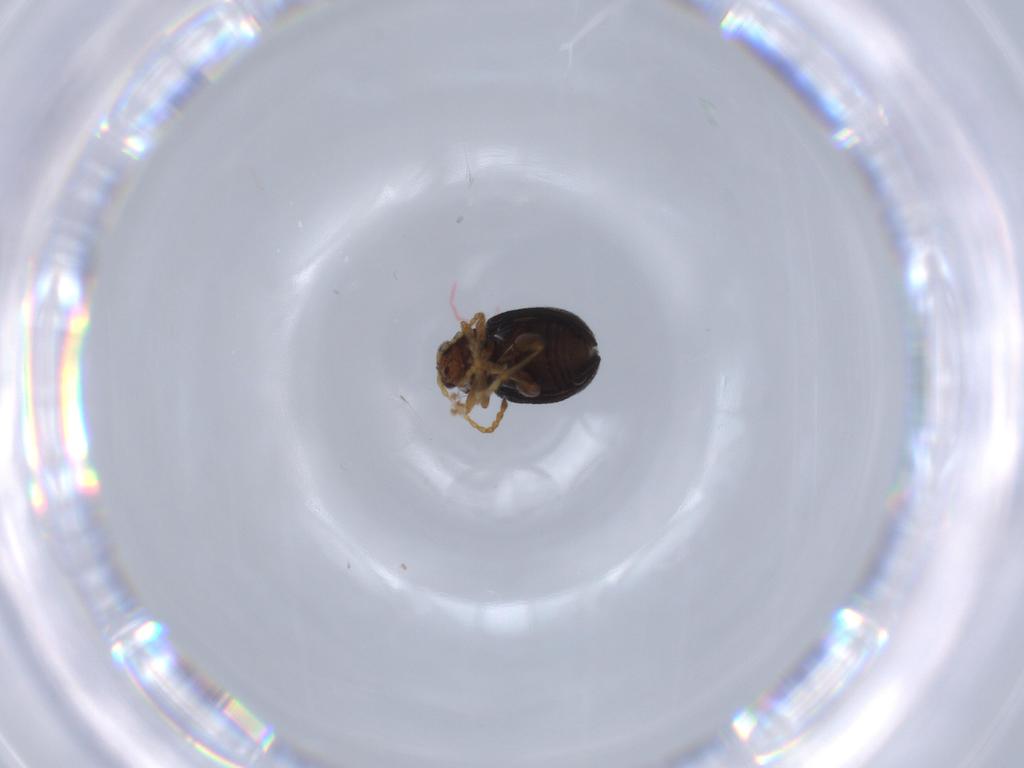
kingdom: Animalia
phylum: Arthropoda
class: Insecta
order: Coleoptera
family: Chrysomelidae
